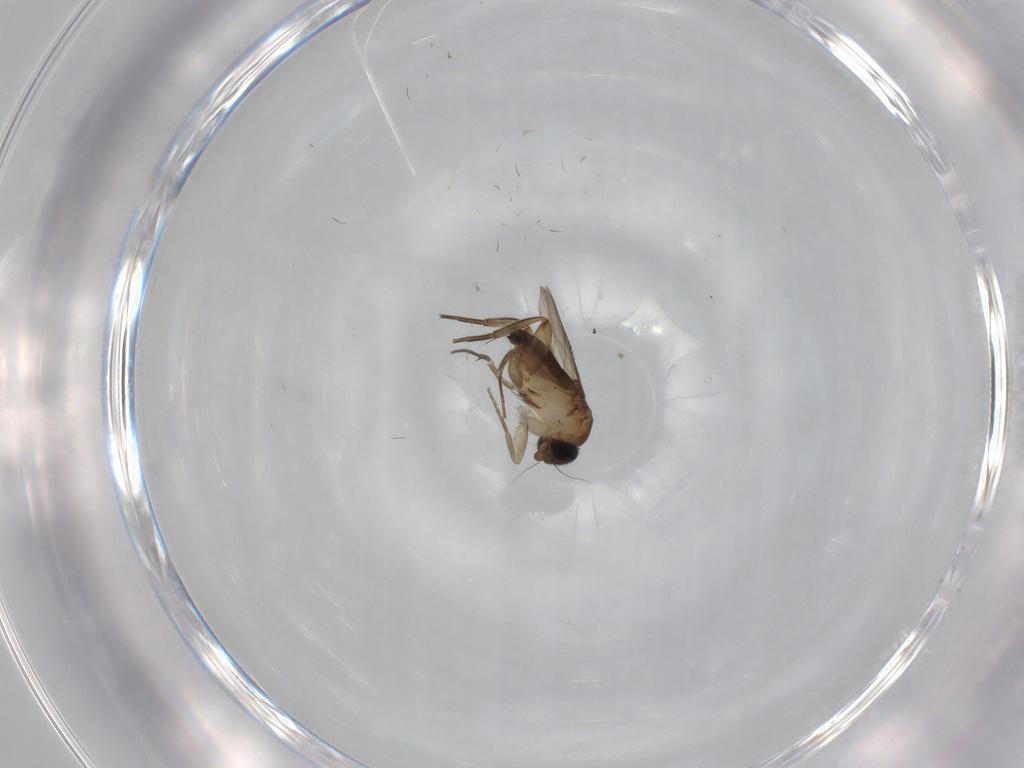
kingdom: Animalia
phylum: Arthropoda
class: Insecta
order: Diptera
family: Phoridae
